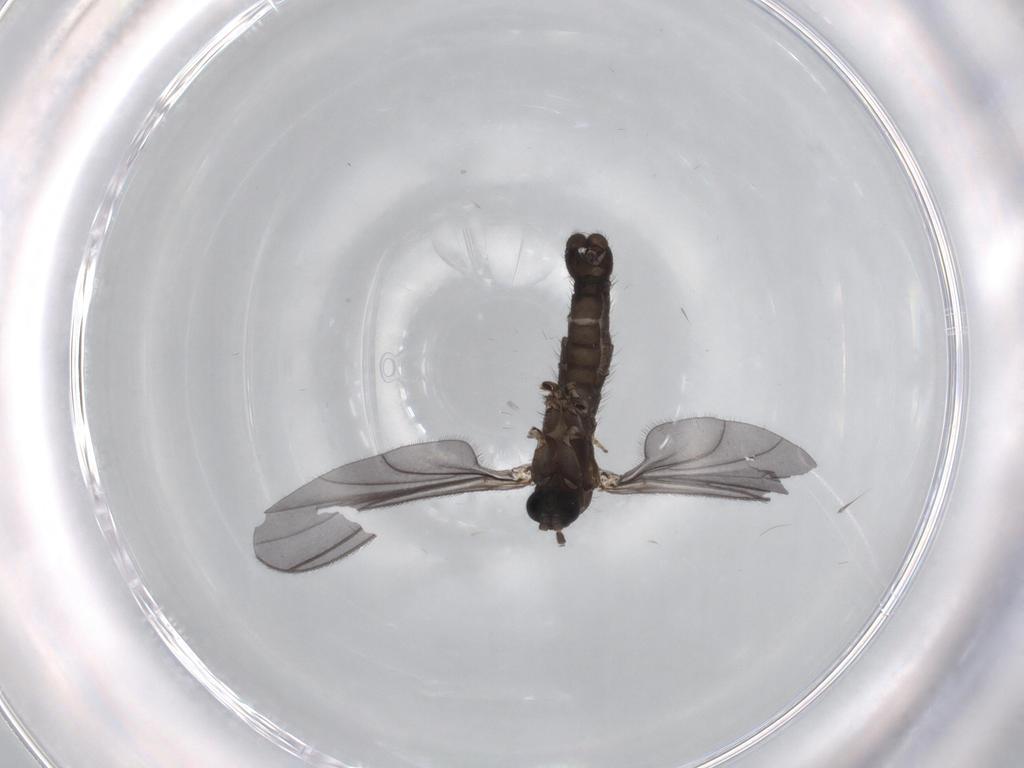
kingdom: Animalia
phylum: Arthropoda
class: Insecta
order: Diptera
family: Sciaridae
